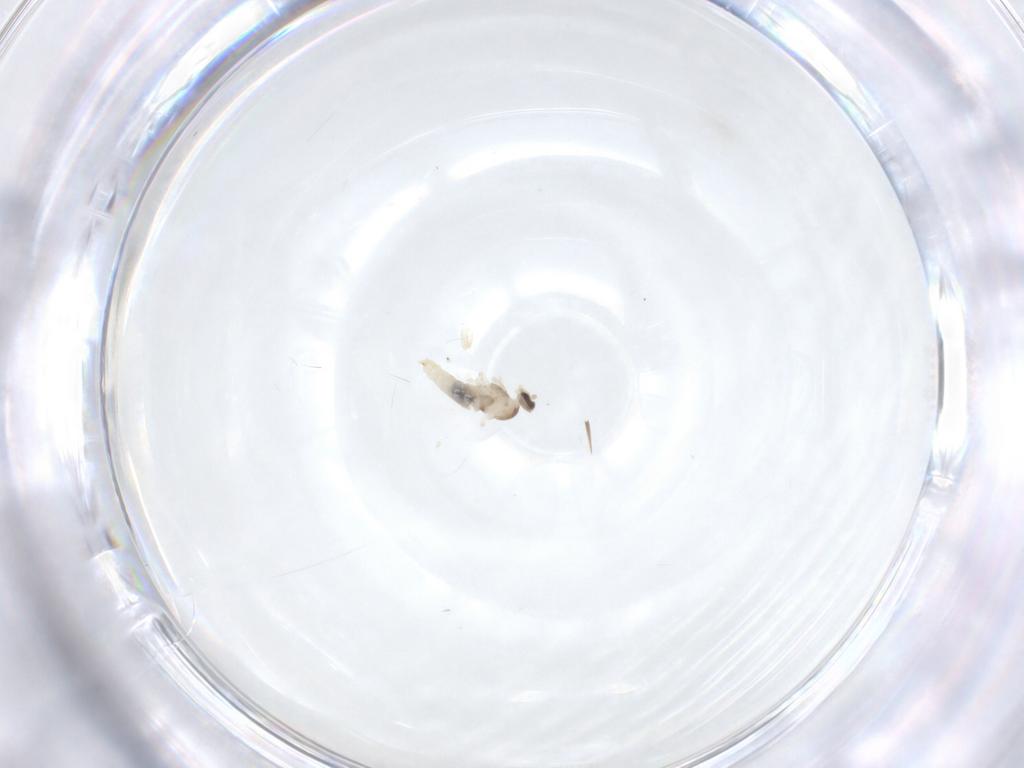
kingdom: Animalia
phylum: Arthropoda
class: Insecta
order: Diptera
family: Cecidomyiidae
